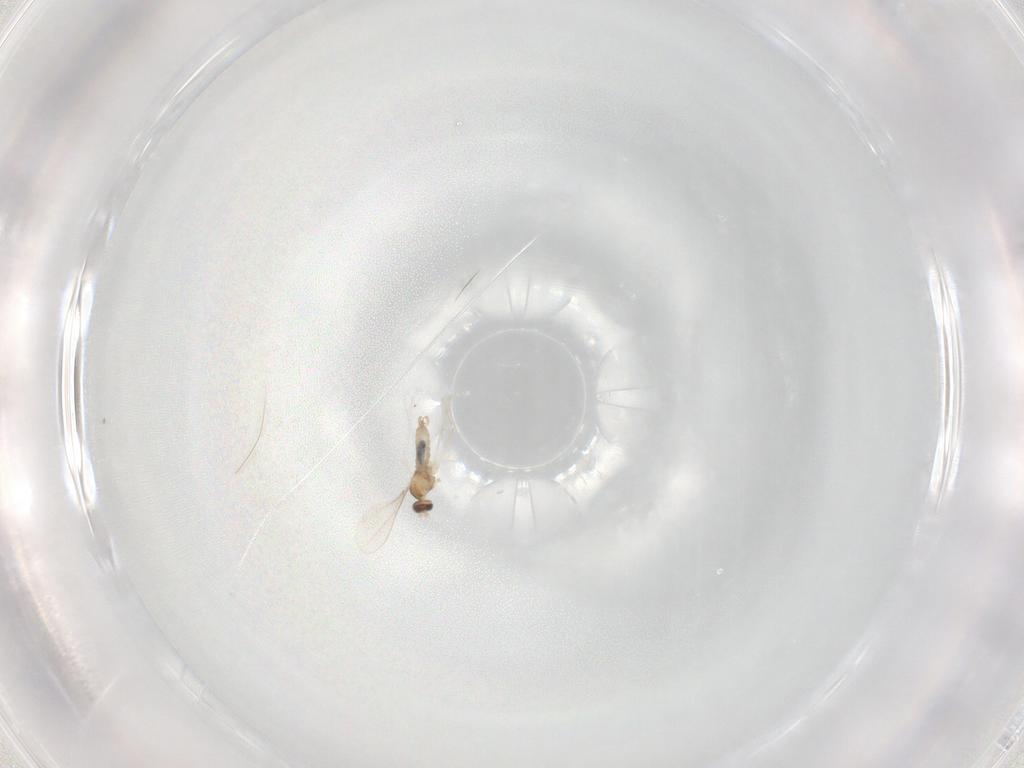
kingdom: Animalia
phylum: Arthropoda
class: Insecta
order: Diptera
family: Cecidomyiidae
